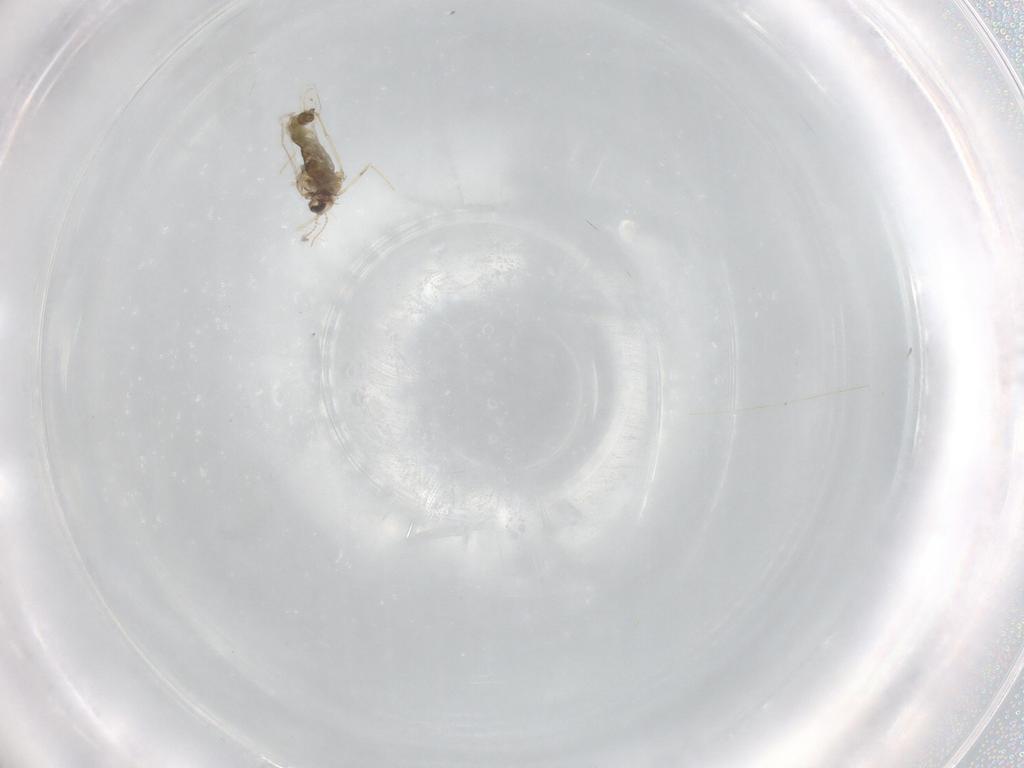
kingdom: Animalia
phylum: Arthropoda
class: Insecta
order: Diptera
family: Cecidomyiidae
